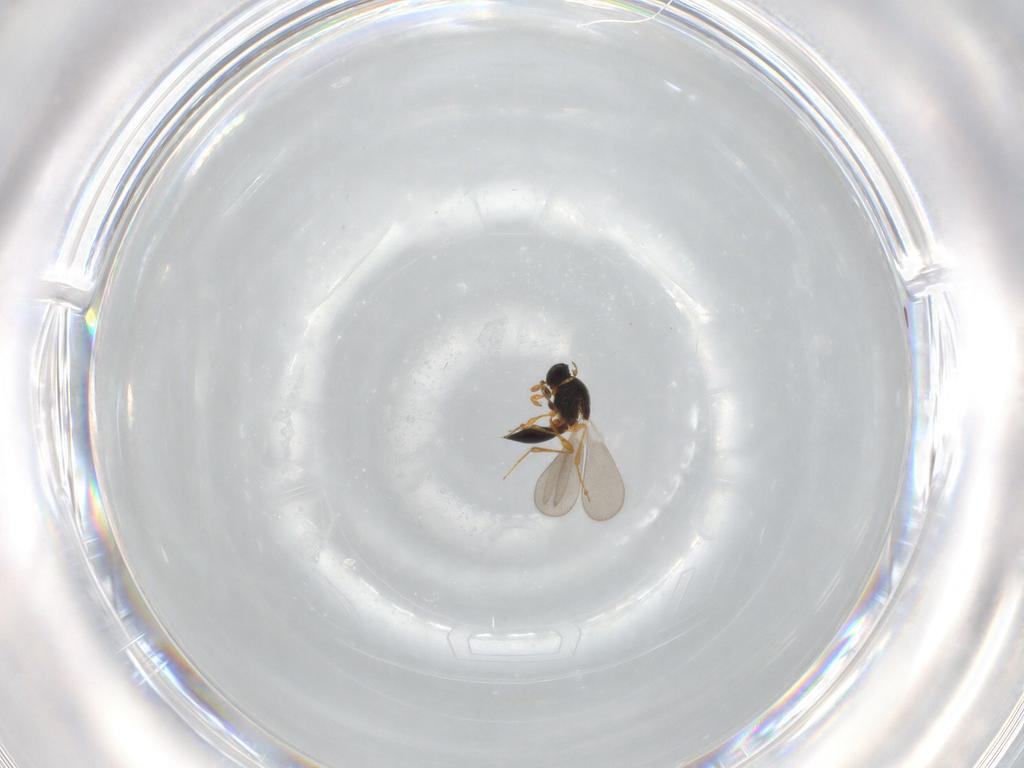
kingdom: Animalia
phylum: Arthropoda
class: Insecta
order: Hymenoptera
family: Platygastridae
